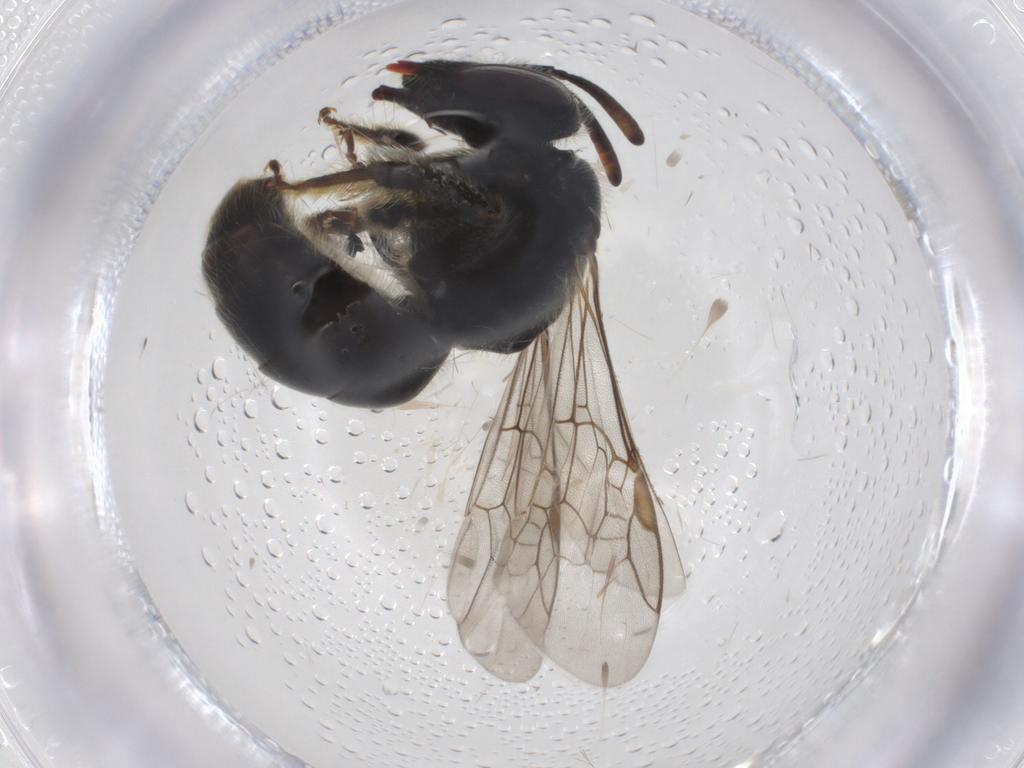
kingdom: Animalia
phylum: Arthropoda
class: Insecta
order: Hymenoptera
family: Halictidae
